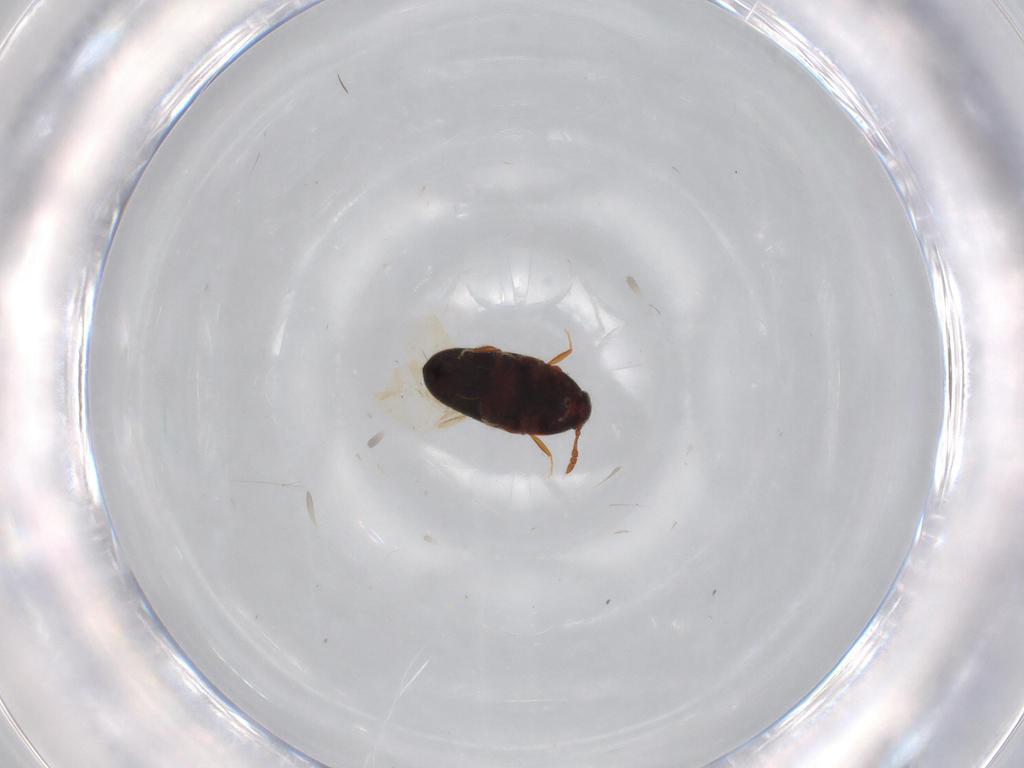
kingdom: Animalia
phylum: Arthropoda
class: Insecta
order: Coleoptera
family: Throscidae
